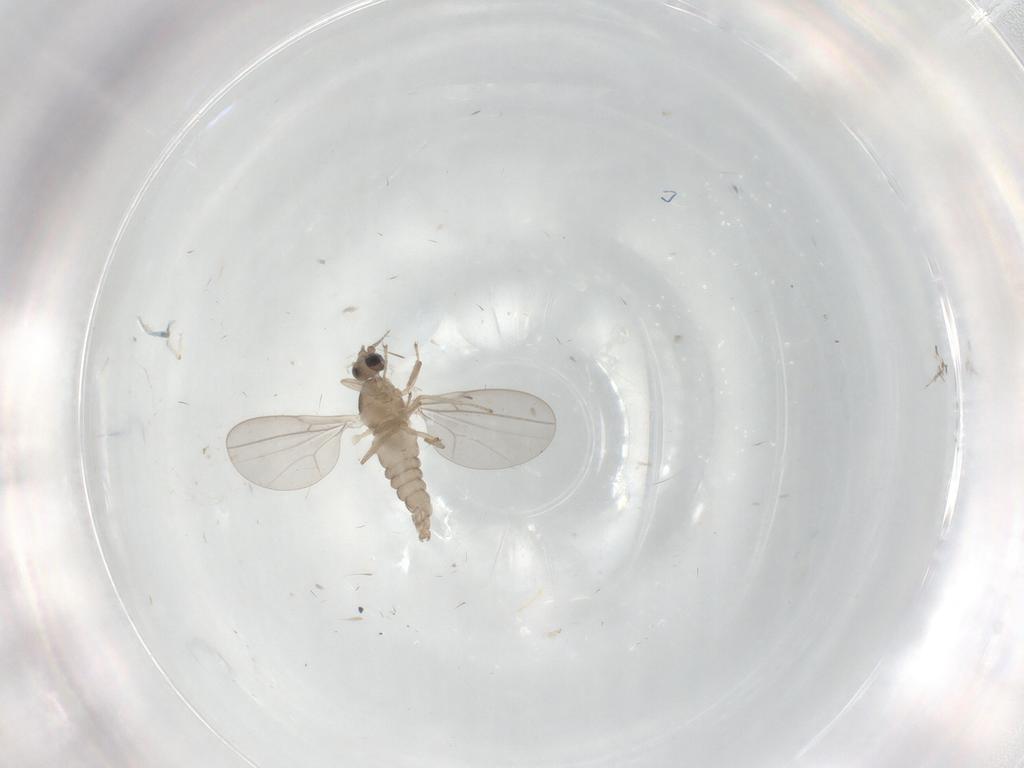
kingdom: Animalia
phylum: Arthropoda
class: Insecta
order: Diptera
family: Cecidomyiidae
